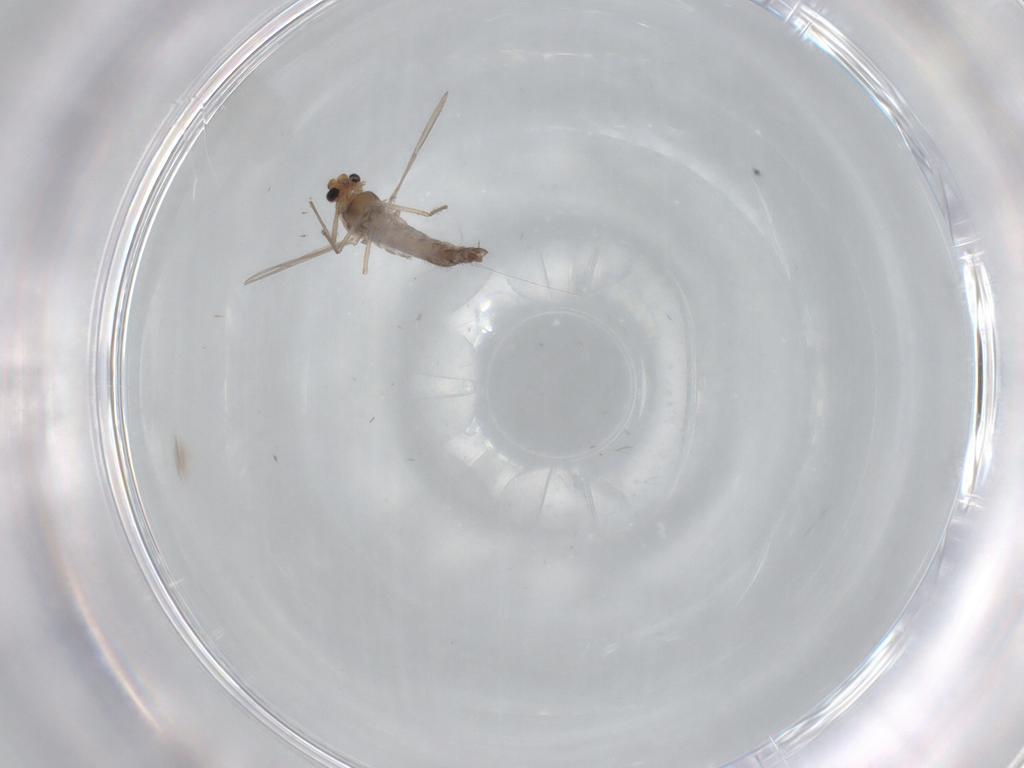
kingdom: Animalia
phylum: Arthropoda
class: Insecta
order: Diptera
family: Chironomidae
